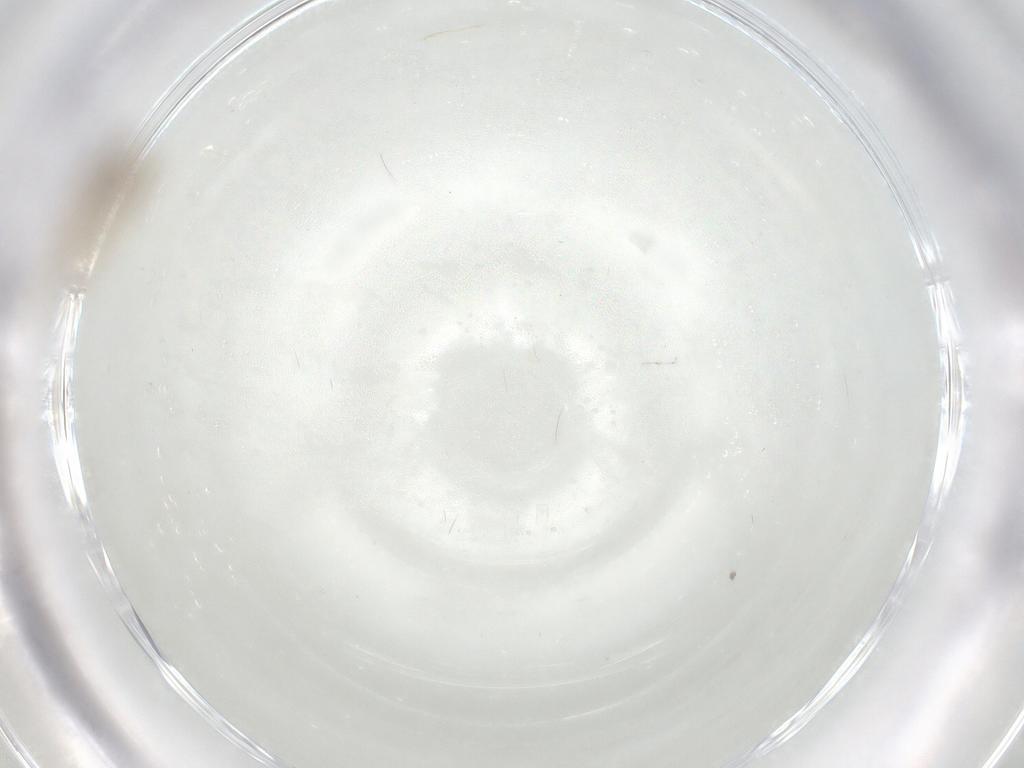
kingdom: Animalia
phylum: Arthropoda
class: Insecta
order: Diptera
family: Cecidomyiidae
